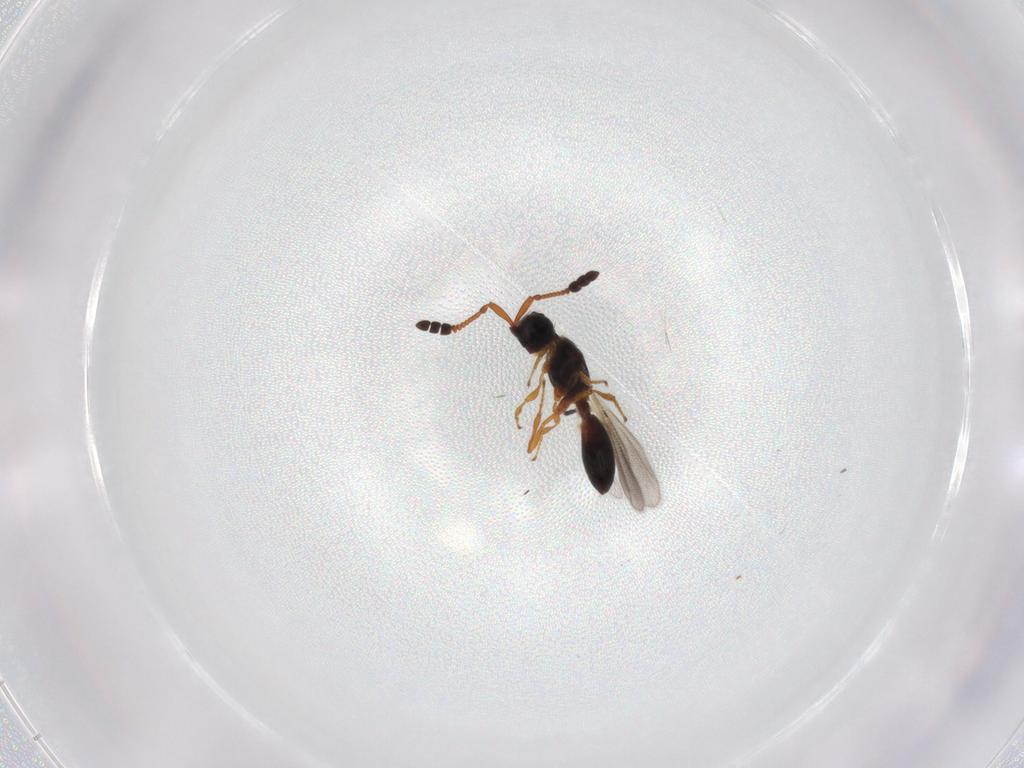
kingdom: Animalia
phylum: Arthropoda
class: Insecta
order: Hymenoptera
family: Diapriidae
